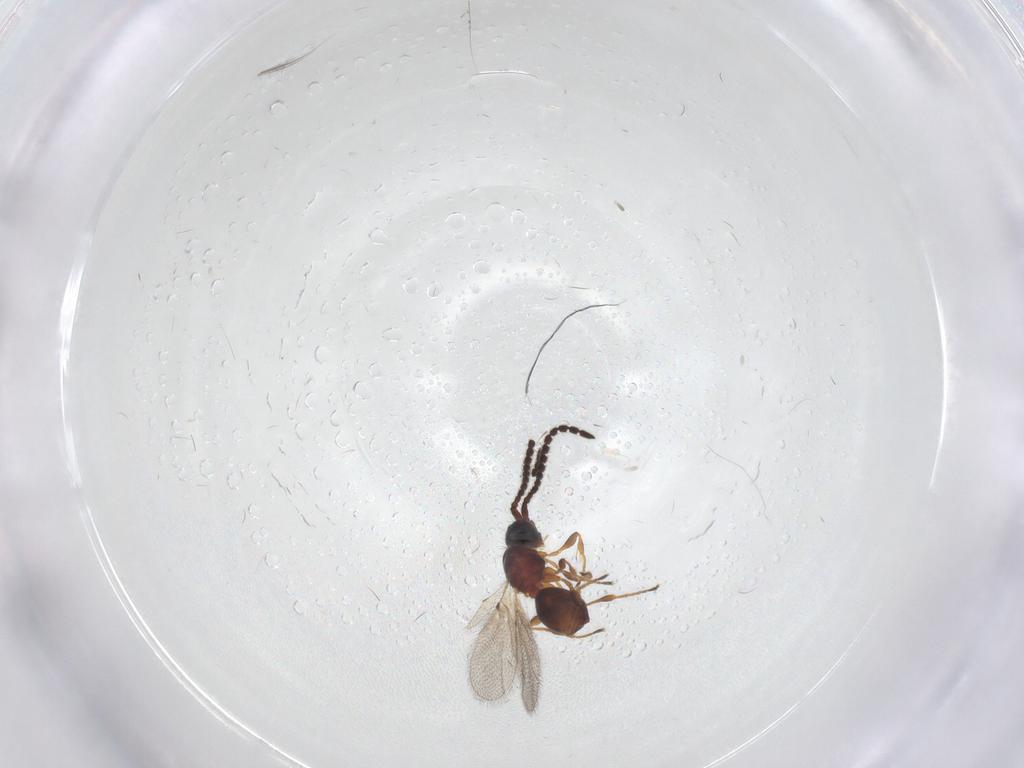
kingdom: Animalia
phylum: Arthropoda
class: Insecta
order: Hymenoptera
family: Diapriidae
